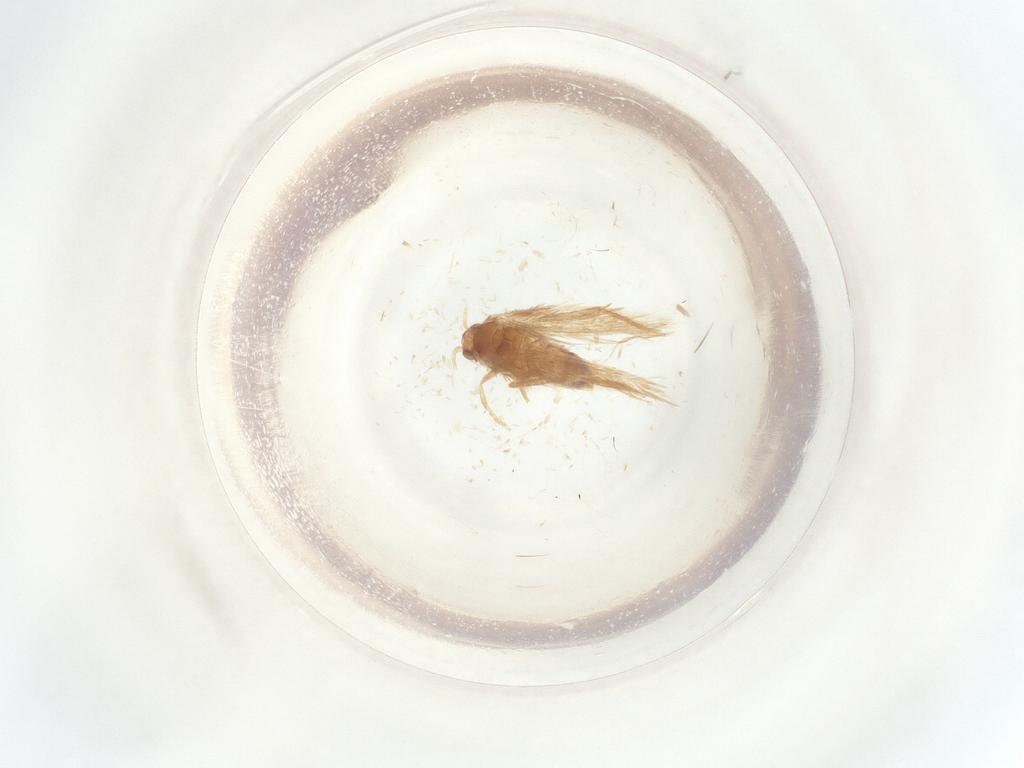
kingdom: Animalia
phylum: Arthropoda
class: Insecta
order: Lepidoptera
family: Nepticulidae
